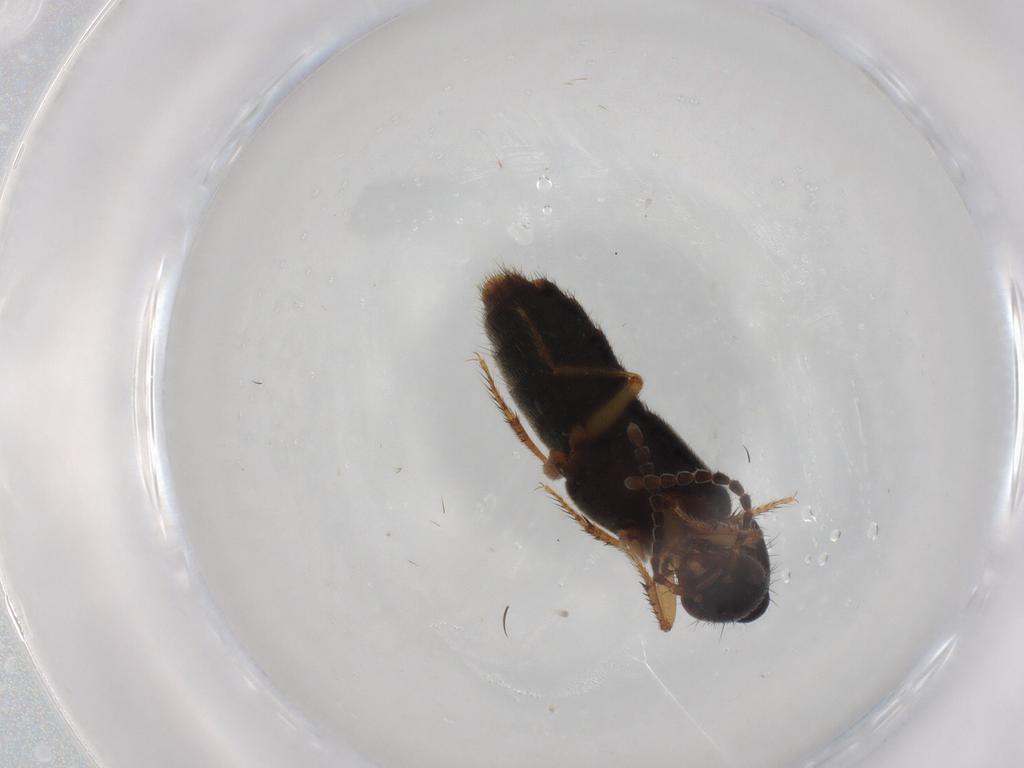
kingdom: Animalia
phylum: Arthropoda
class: Insecta
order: Coleoptera
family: Staphylinidae
